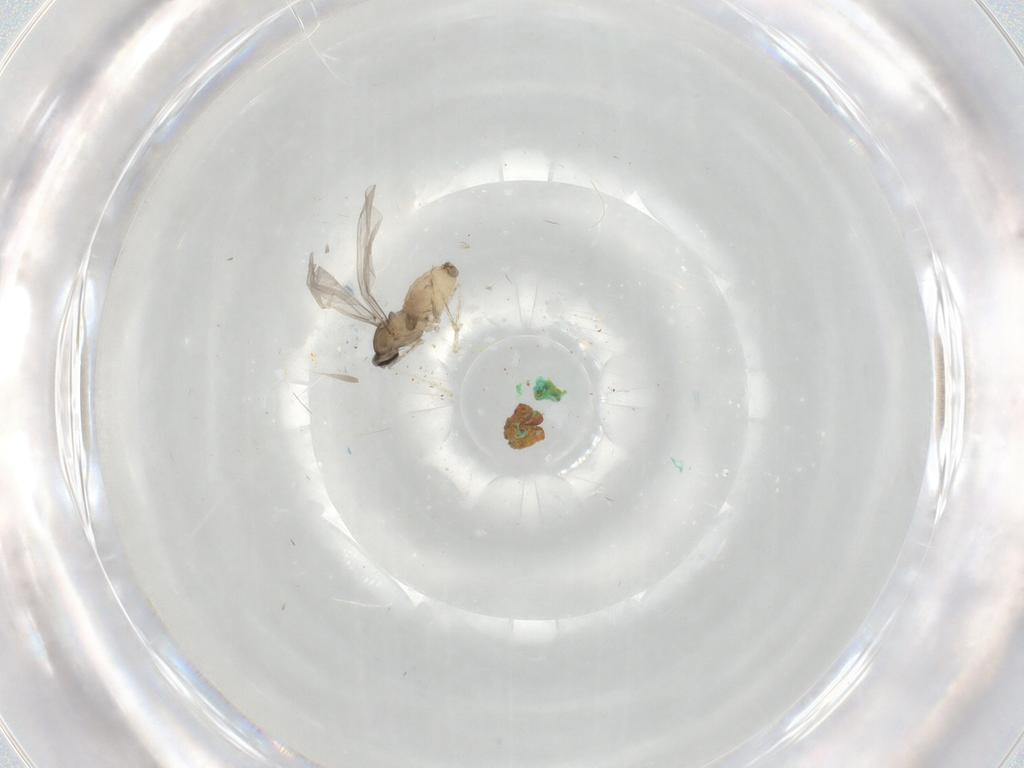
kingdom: Animalia
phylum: Arthropoda
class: Insecta
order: Diptera
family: Cecidomyiidae
